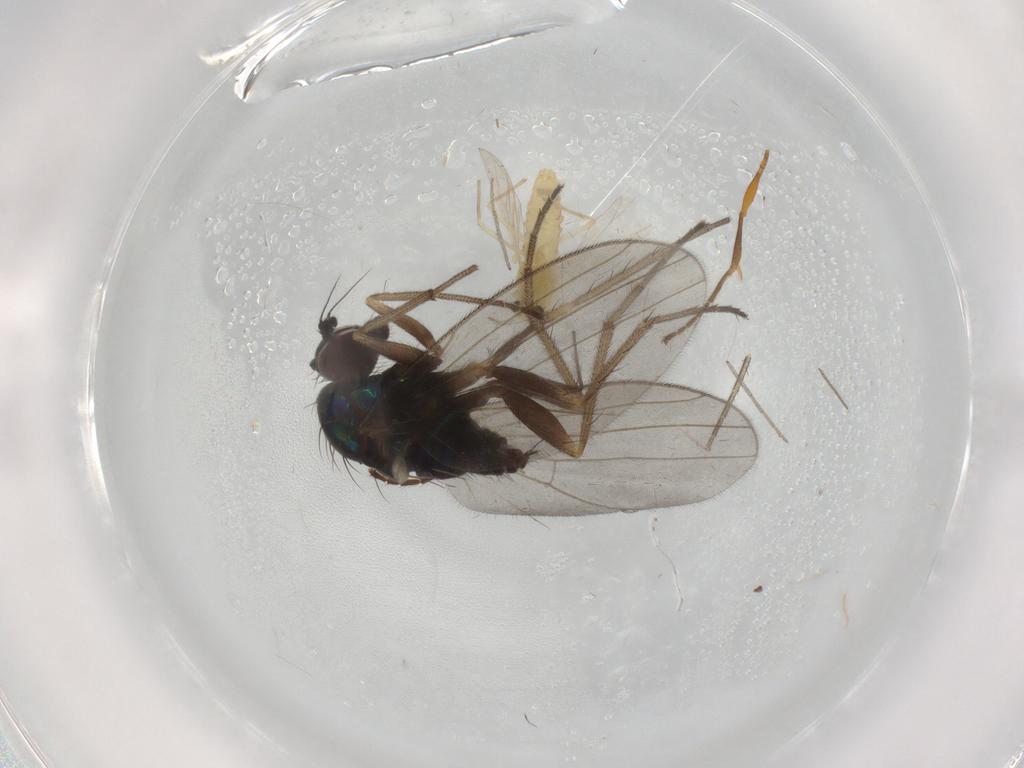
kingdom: Animalia
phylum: Arthropoda
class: Insecta
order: Diptera
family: Chironomidae
